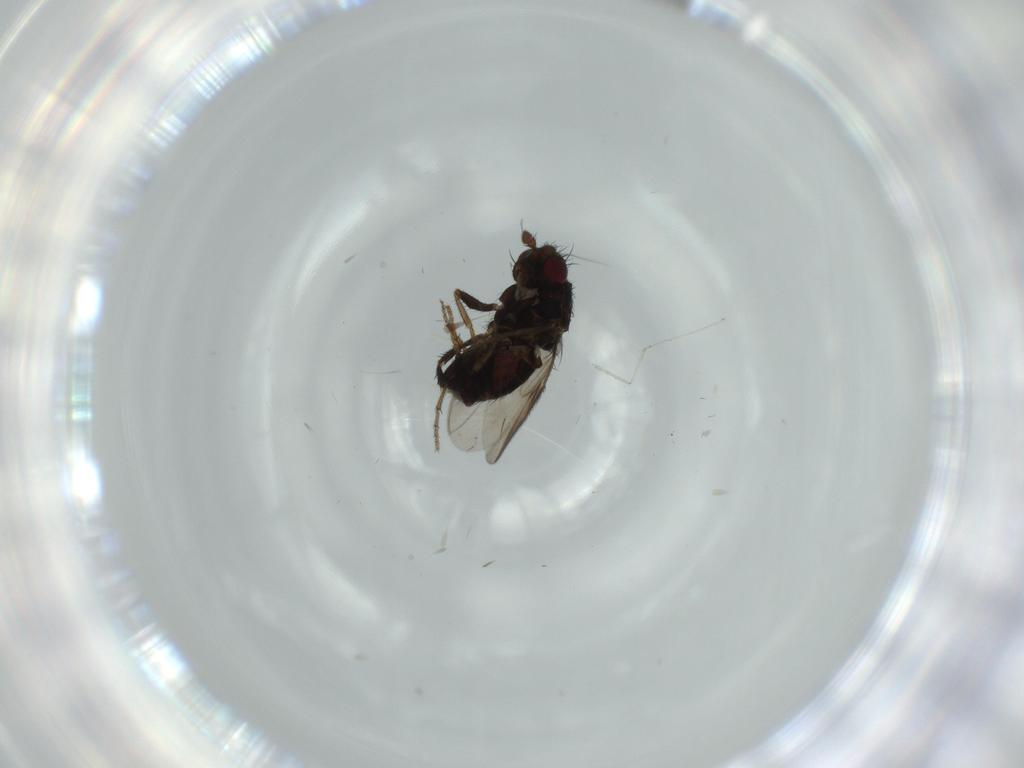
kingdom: Animalia
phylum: Arthropoda
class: Insecta
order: Diptera
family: Sphaeroceridae
